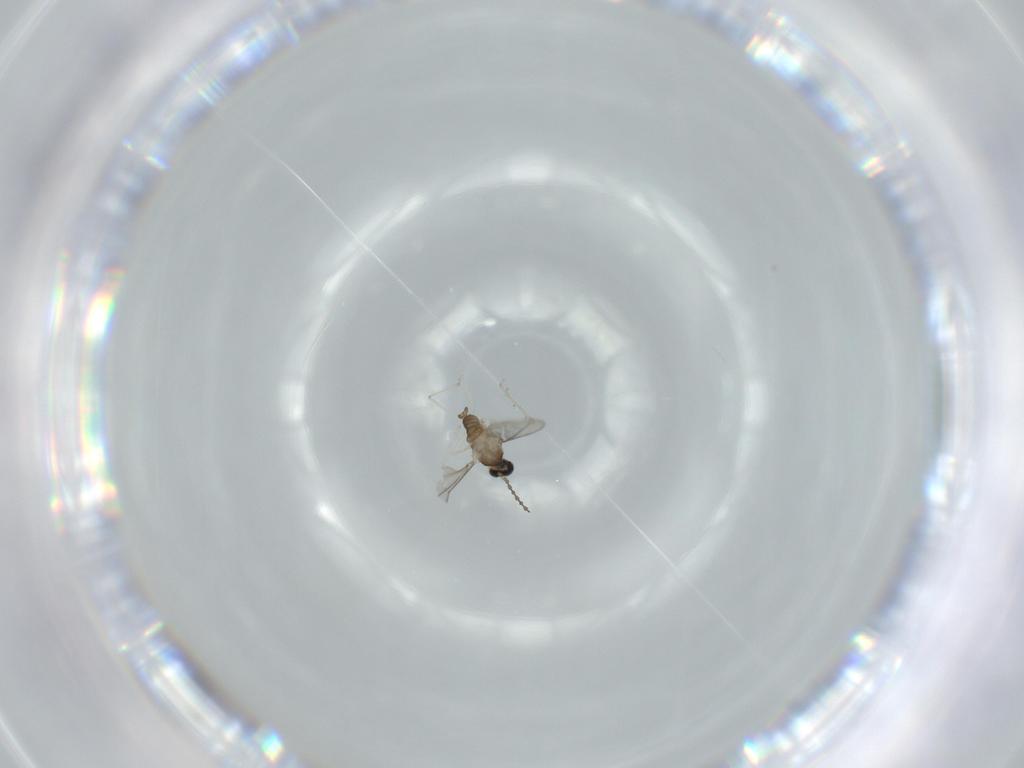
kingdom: Animalia
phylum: Arthropoda
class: Insecta
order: Diptera
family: Cecidomyiidae
